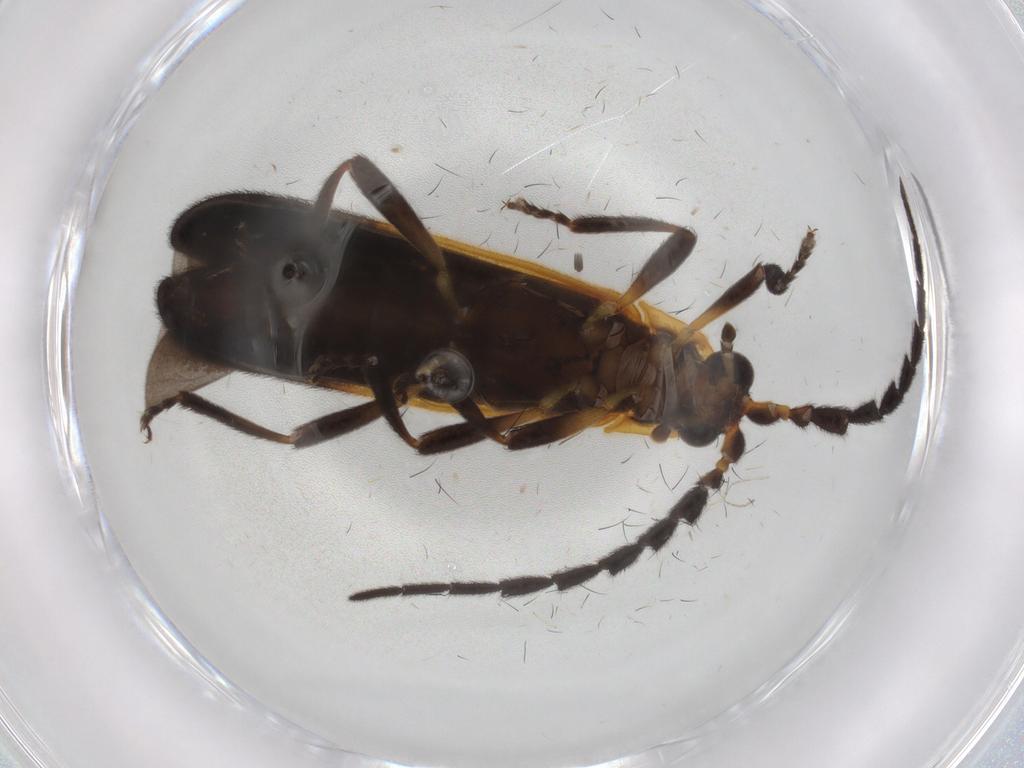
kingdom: Animalia
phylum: Arthropoda
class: Insecta
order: Coleoptera
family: Lycidae
